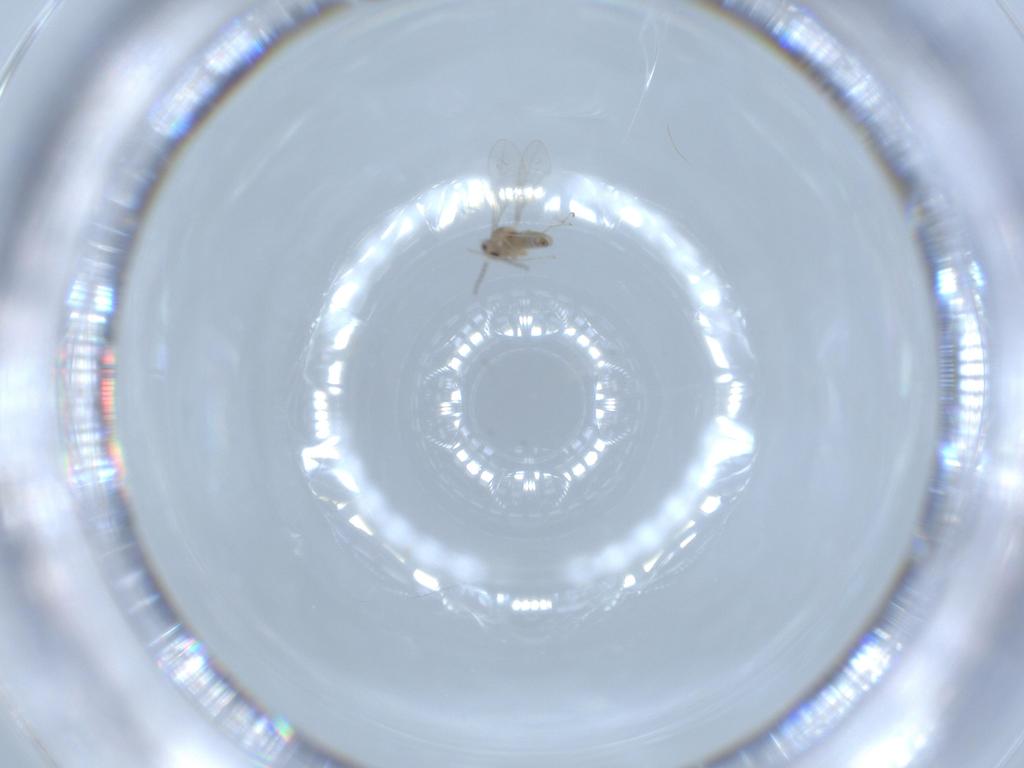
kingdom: Animalia
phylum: Arthropoda
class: Insecta
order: Diptera
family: Cecidomyiidae
